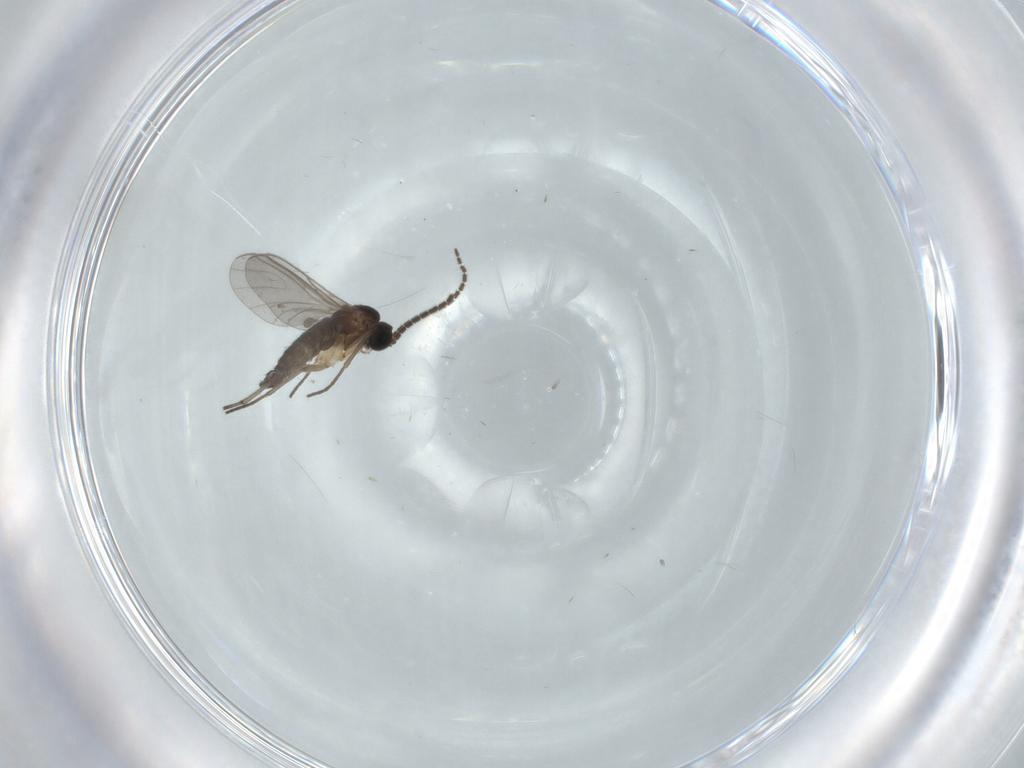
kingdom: Animalia
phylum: Arthropoda
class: Insecta
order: Diptera
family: Sciaridae
